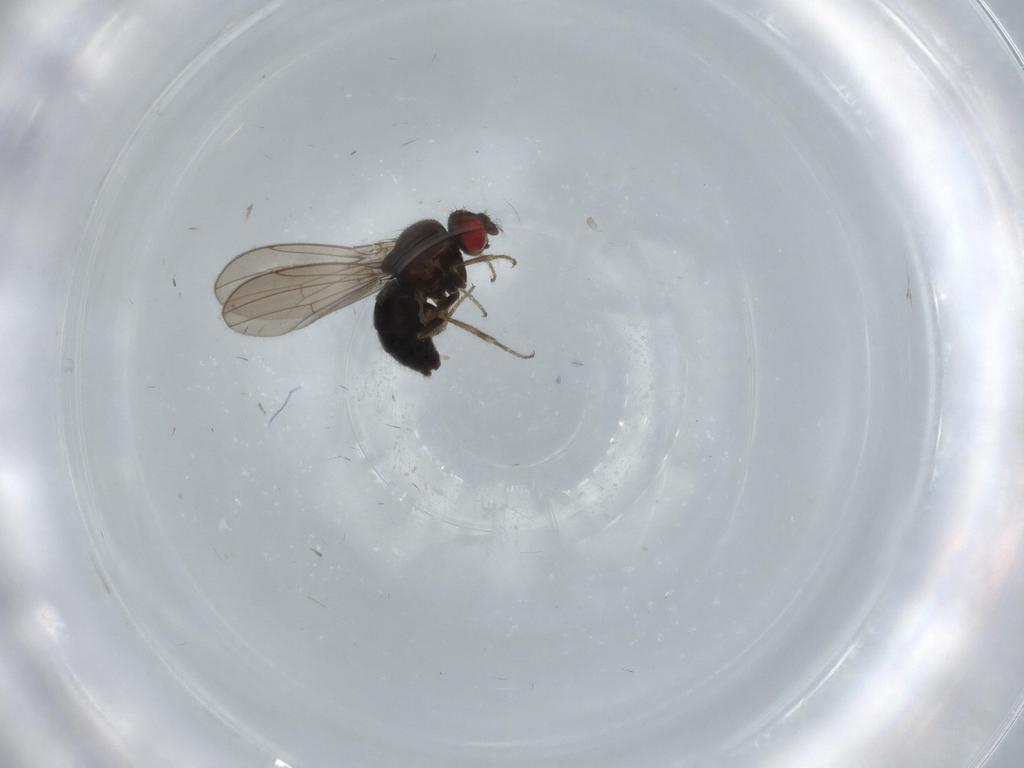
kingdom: Animalia
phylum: Arthropoda
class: Insecta
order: Diptera
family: Drosophilidae
